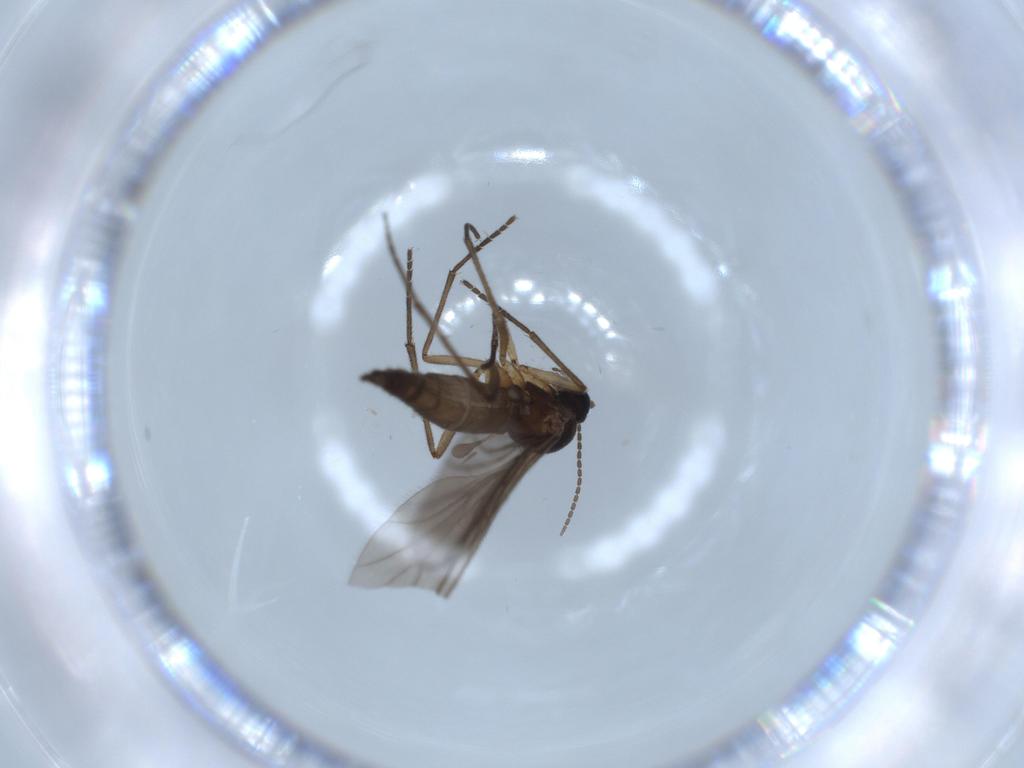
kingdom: Animalia
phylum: Arthropoda
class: Insecta
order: Diptera
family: Sciaridae
